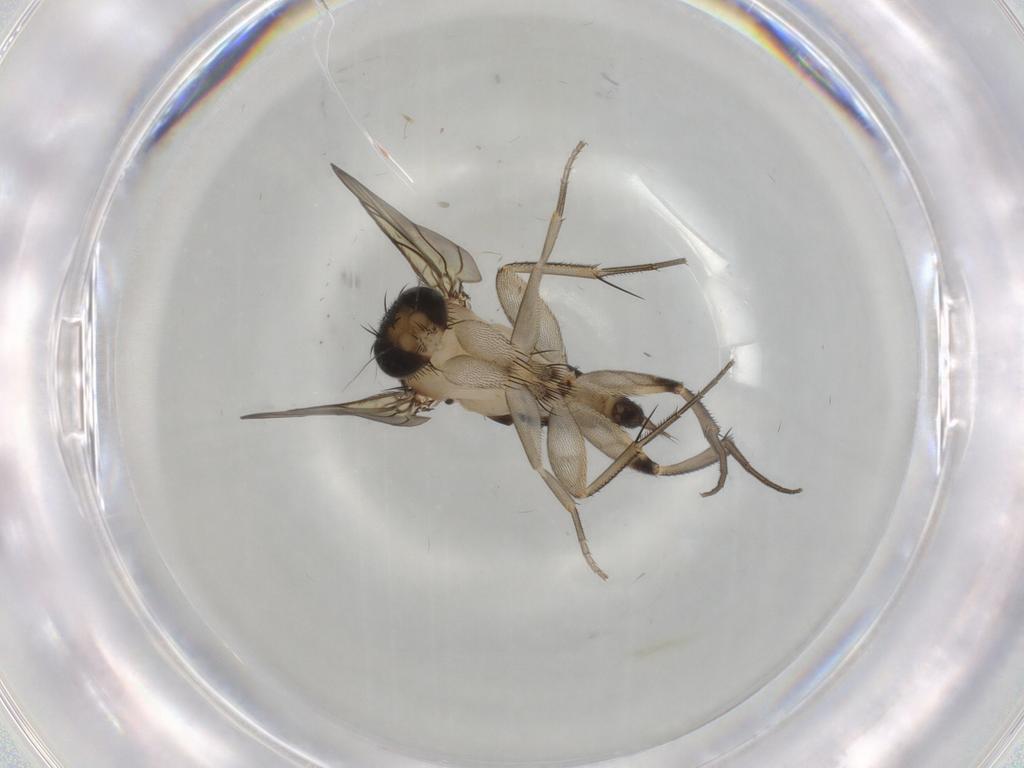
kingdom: Animalia
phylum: Arthropoda
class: Insecta
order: Diptera
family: Phoridae
